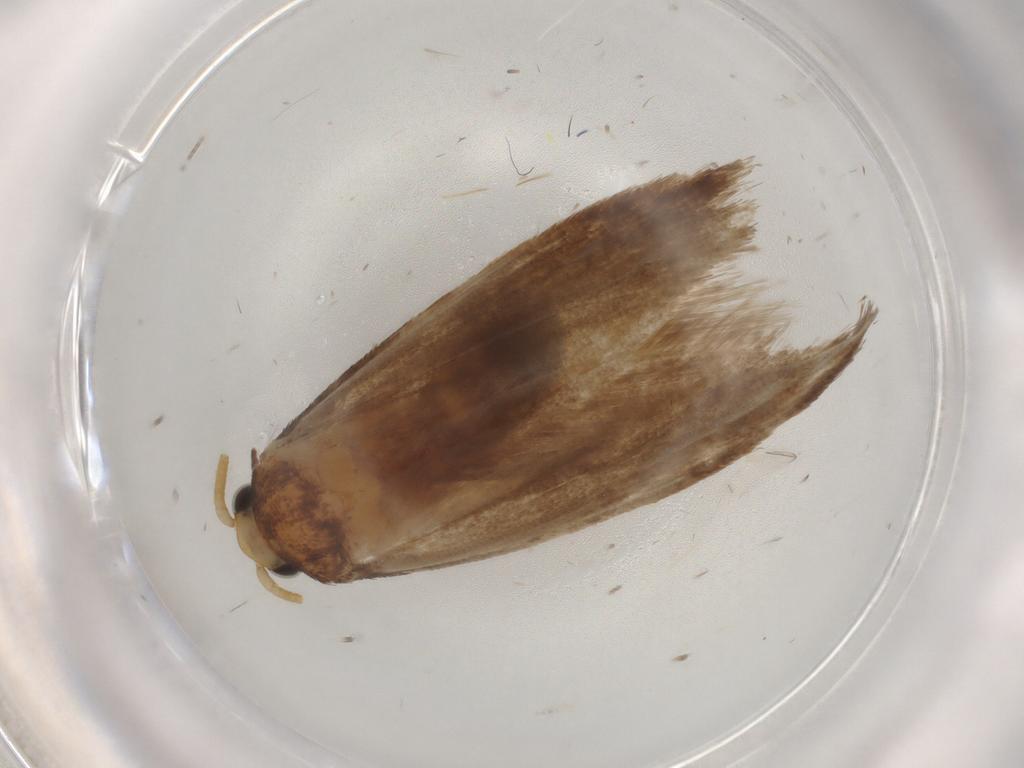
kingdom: Animalia
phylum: Arthropoda
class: Insecta
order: Lepidoptera
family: Tineidae
